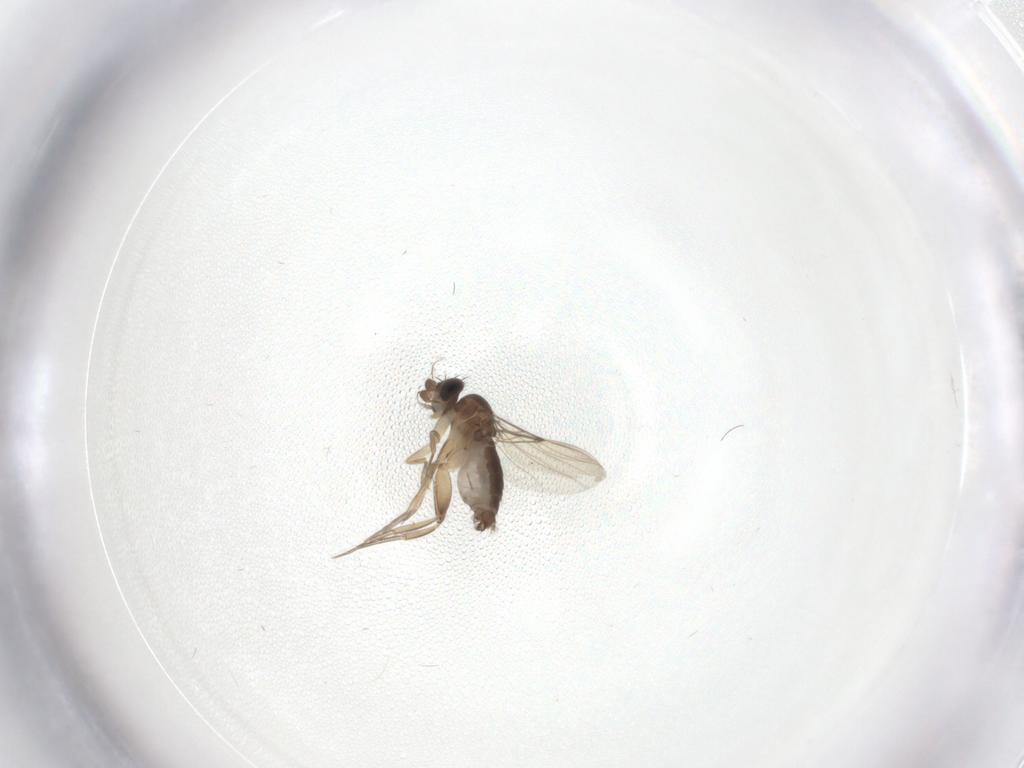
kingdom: Animalia
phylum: Arthropoda
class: Insecta
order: Diptera
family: Phoridae
